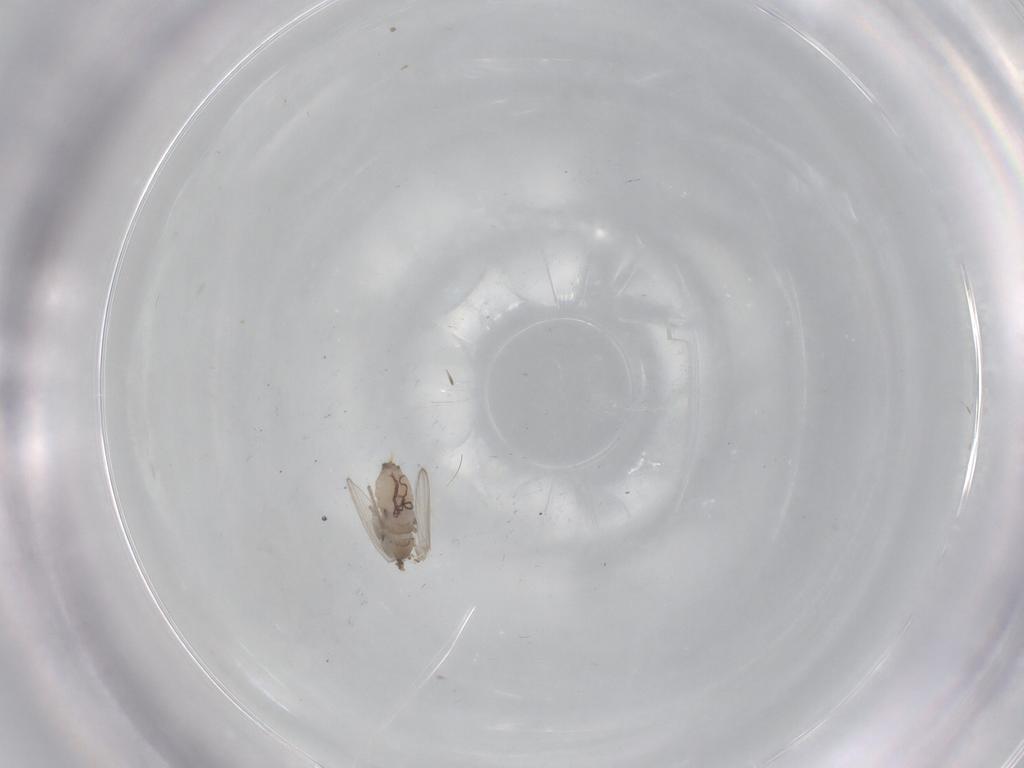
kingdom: Animalia
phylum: Arthropoda
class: Insecta
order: Diptera
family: Psychodidae
